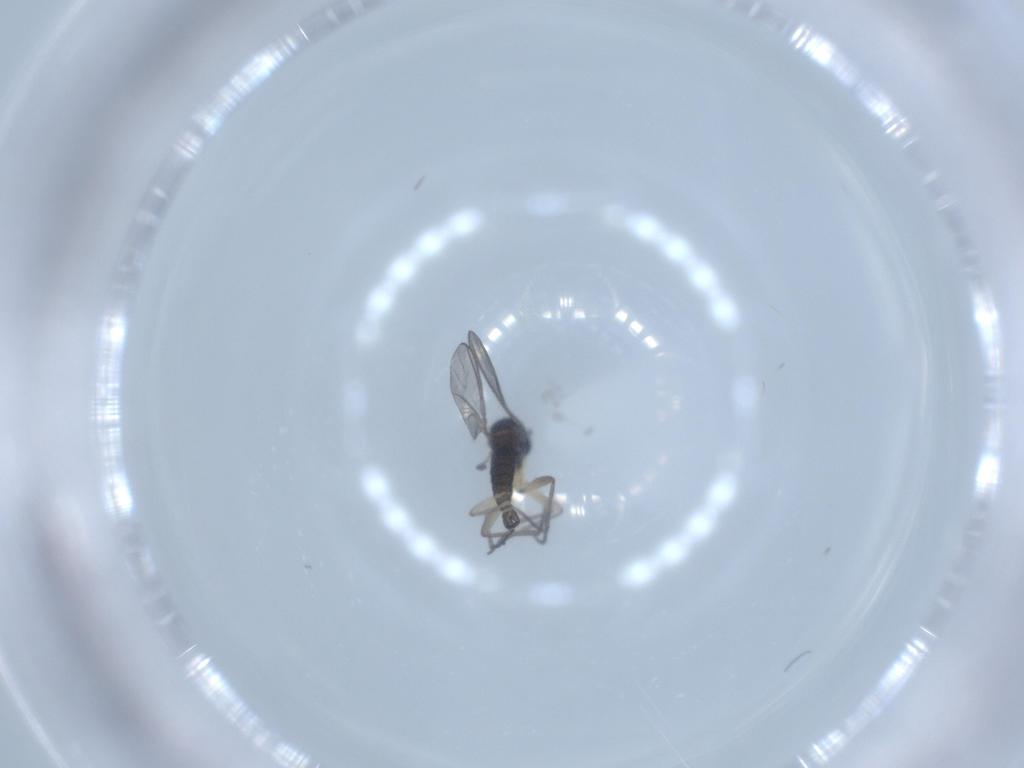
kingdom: Animalia
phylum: Arthropoda
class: Insecta
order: Diptera
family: Sciaridae
